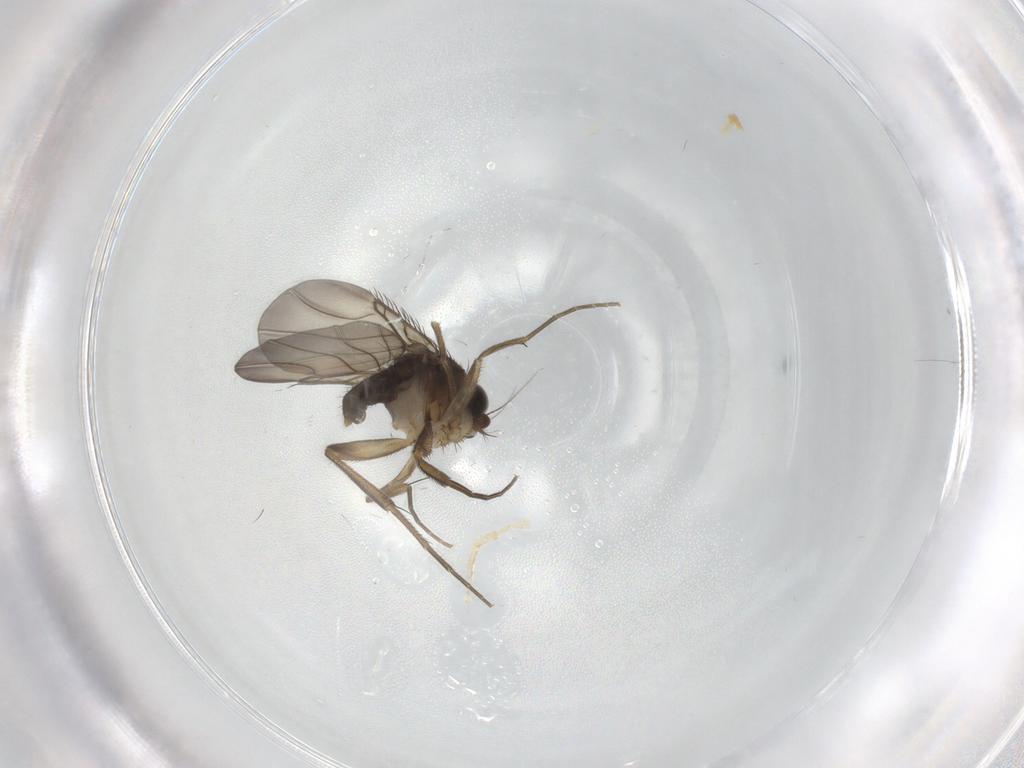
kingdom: Animalia
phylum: Arthropoda
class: Insecta
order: Diptera
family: Phoridae
